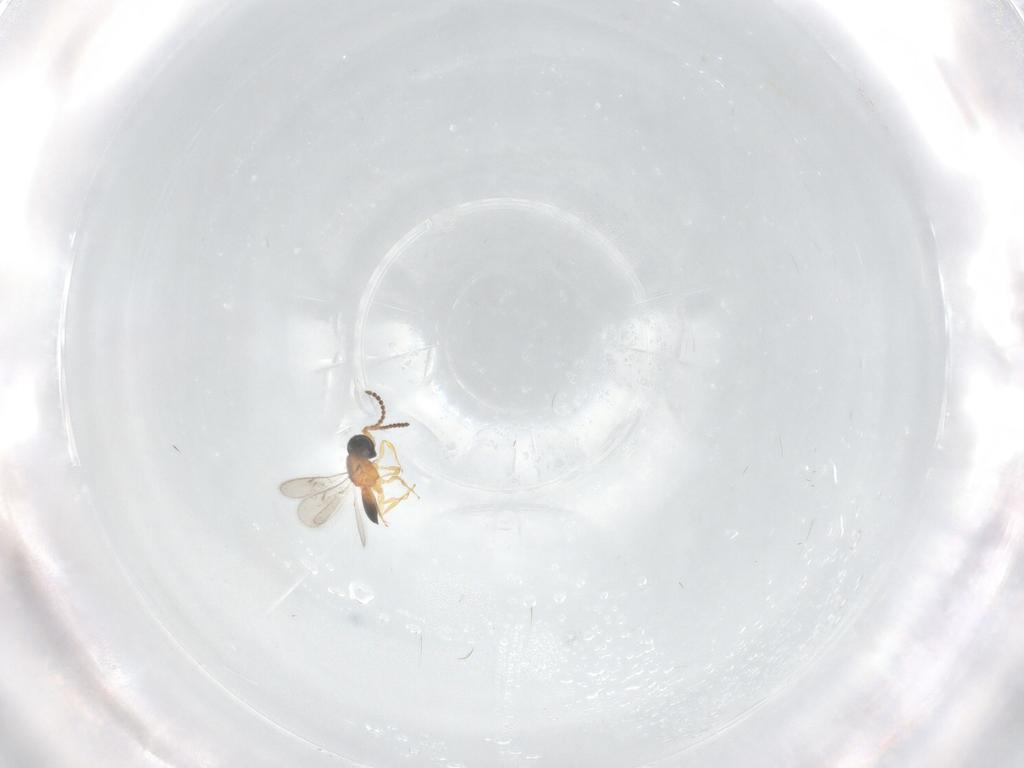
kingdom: Animalia
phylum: Arthropoda
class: Insecta
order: Hymenoptera
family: Scelionidae
